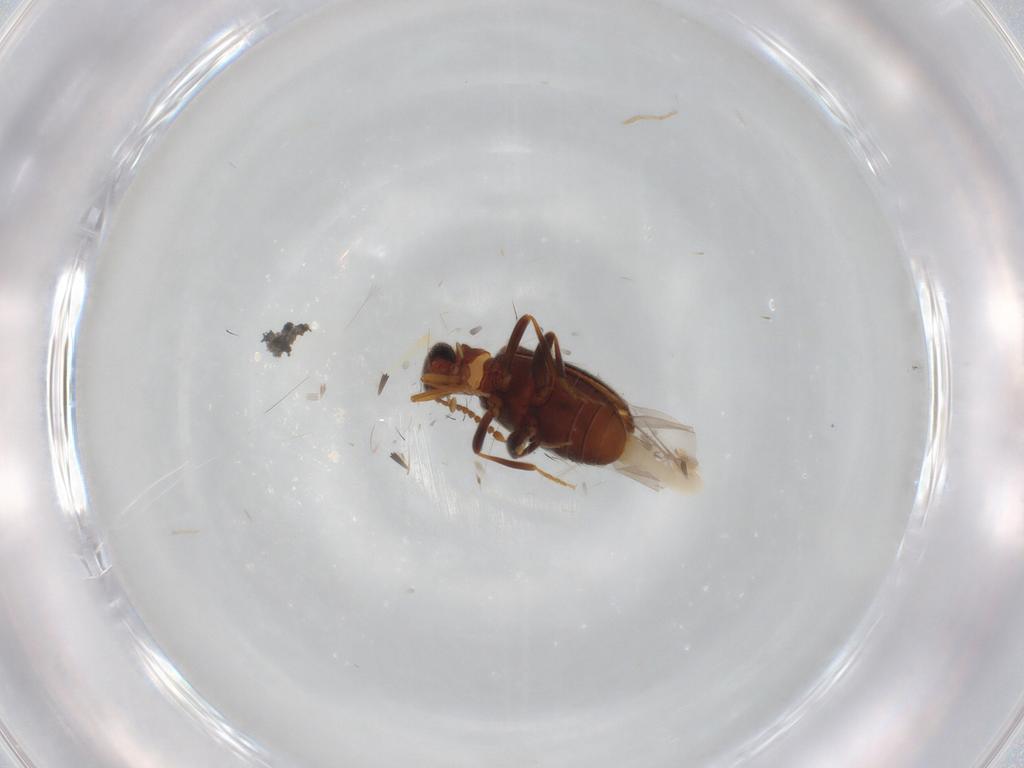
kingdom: Animalia
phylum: Arthropoda
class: Insecta
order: Coleoptera
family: Aderidae
